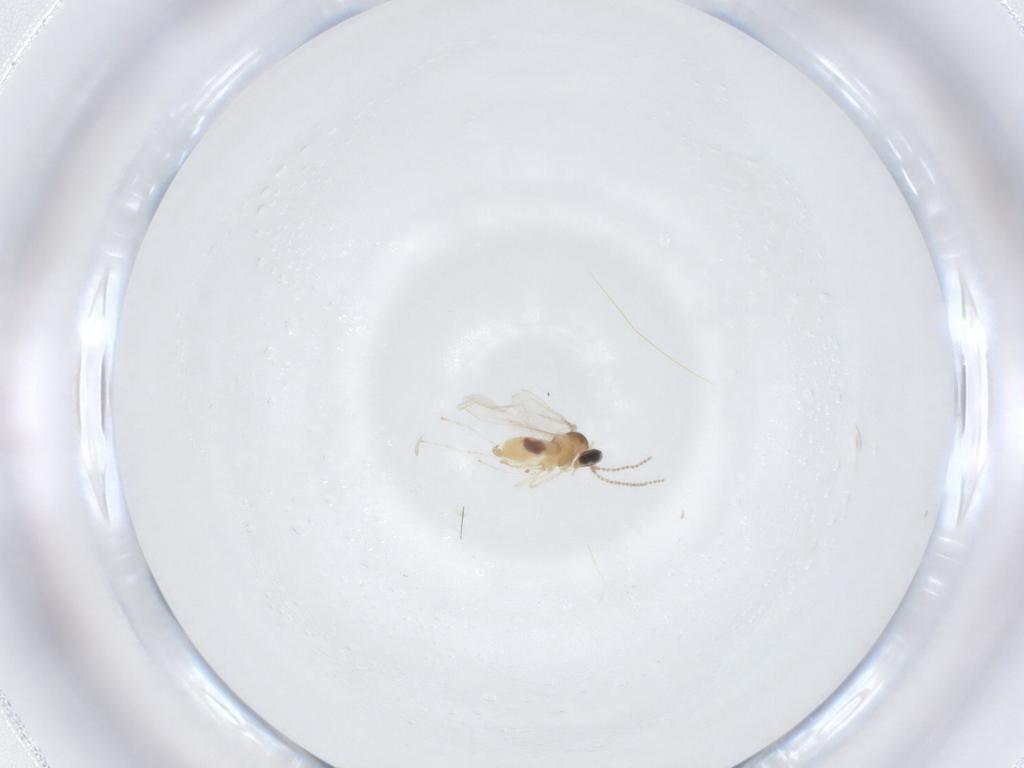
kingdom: Animalia
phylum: Arthropoda
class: Insecta
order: Diptera
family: Cecidomyiidae
